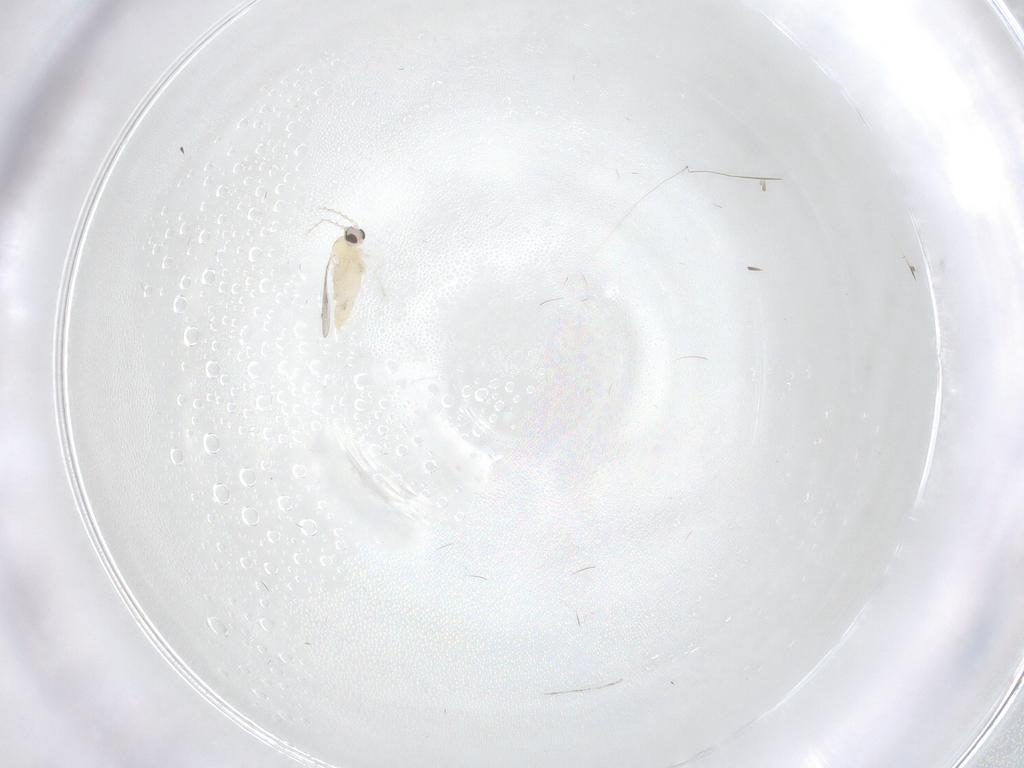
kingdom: Animalia
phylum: Arthropoda
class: Insecta
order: Diptera
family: Cecidomyiidae
